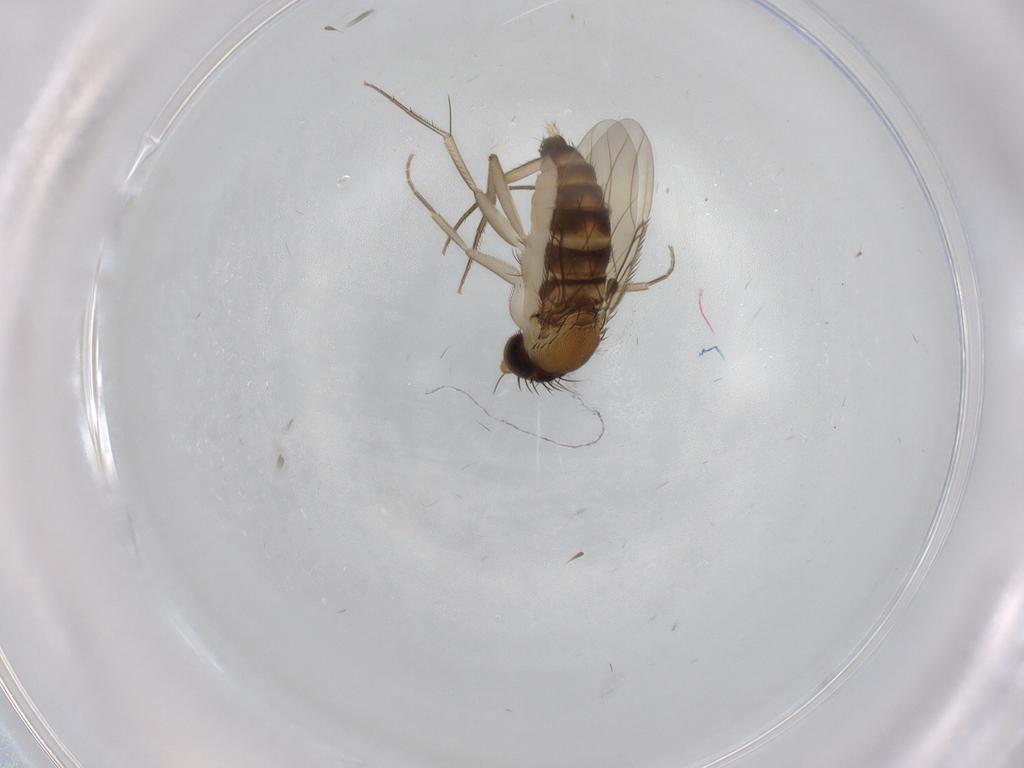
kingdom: Animalia
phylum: Arthropoda
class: Insecta
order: Diptera
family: Phoridae
